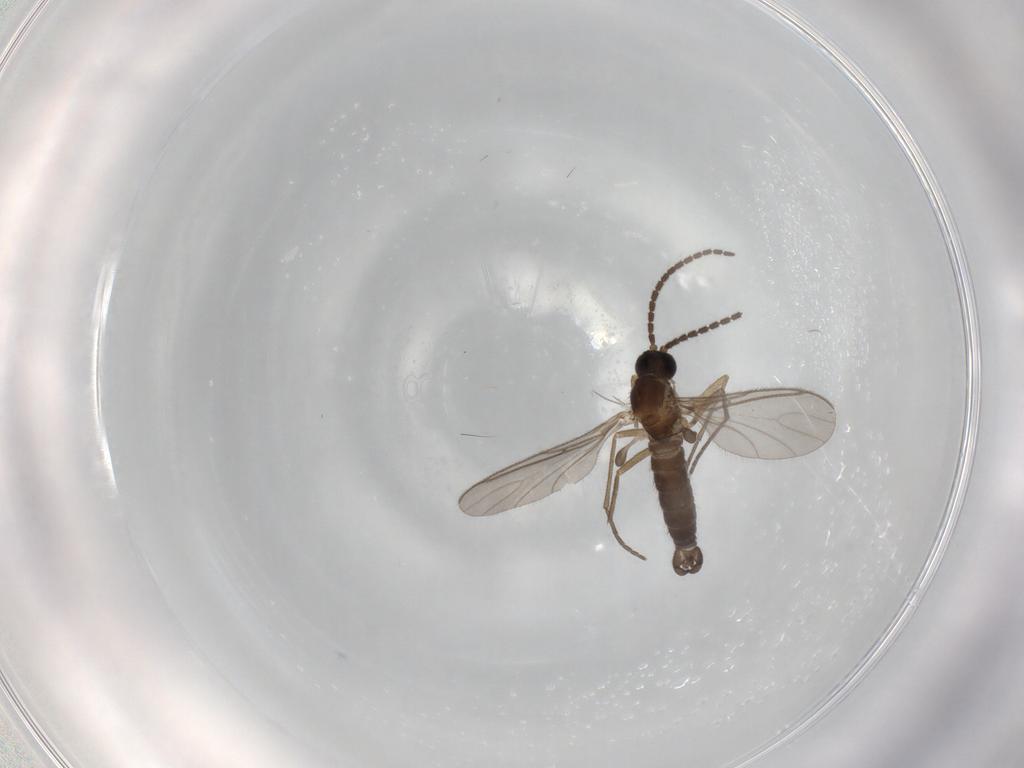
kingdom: Animalia
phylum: Arthropoda
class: Insecta
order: Diptera
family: Sciaridae
